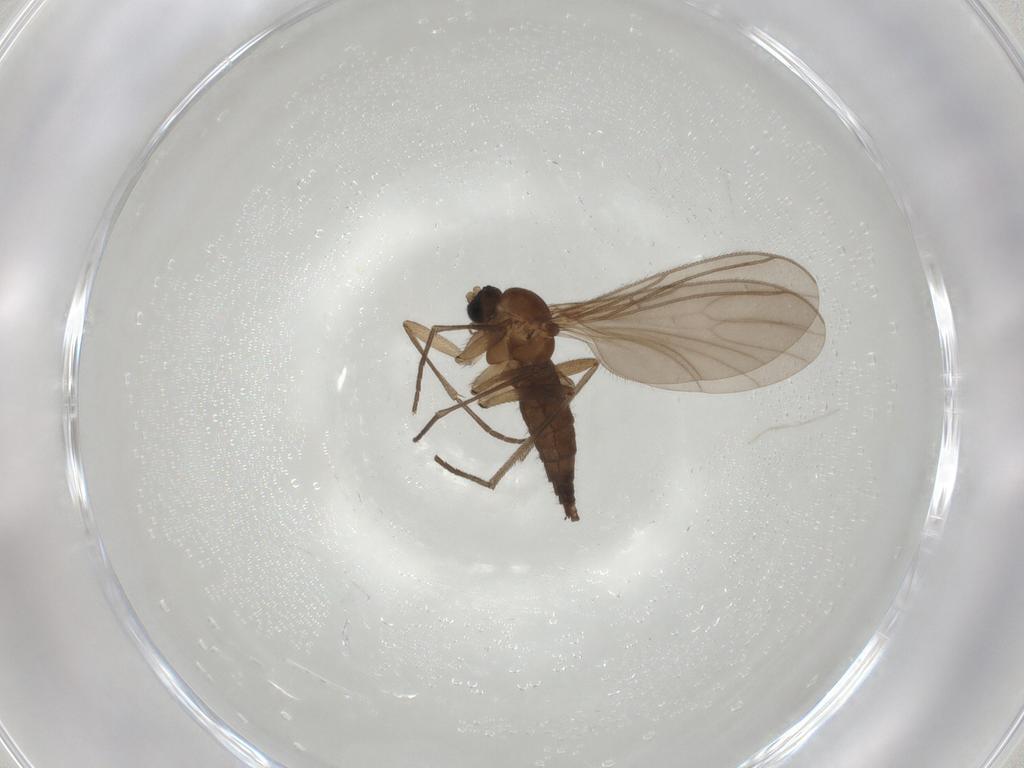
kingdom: Animalia
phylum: Arthropoda
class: Insecta
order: Diptera
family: Sciaridae
